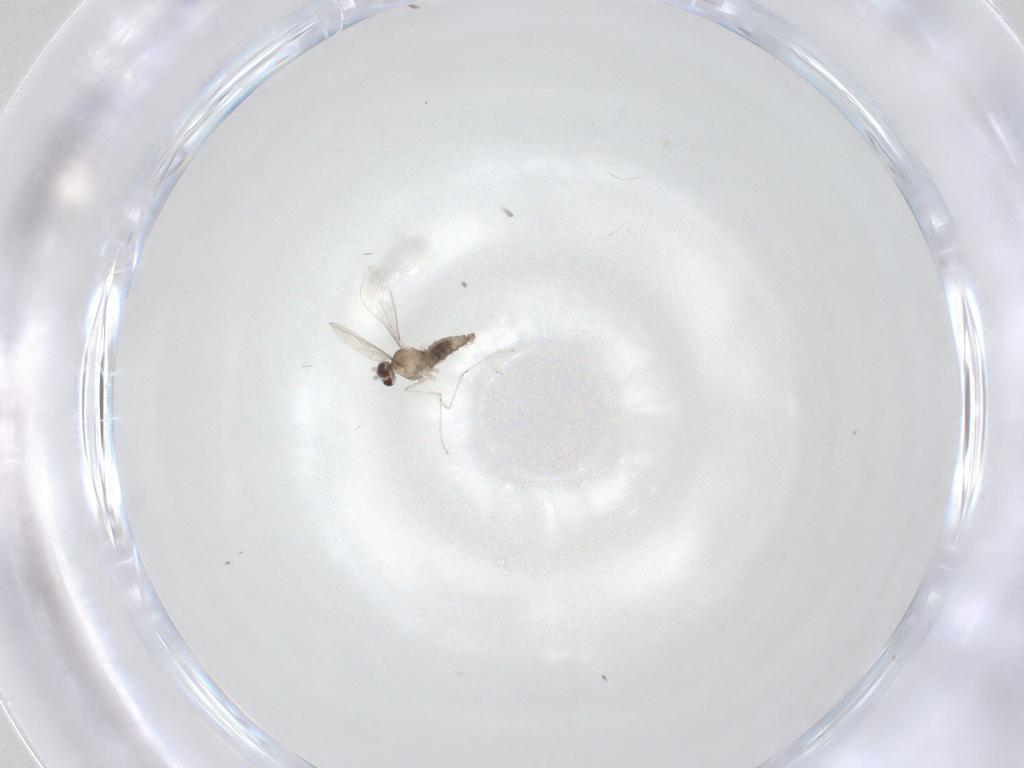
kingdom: Animalia
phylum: Arthropoda
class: Insecta
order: Diptera
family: Cecidomyiidae
